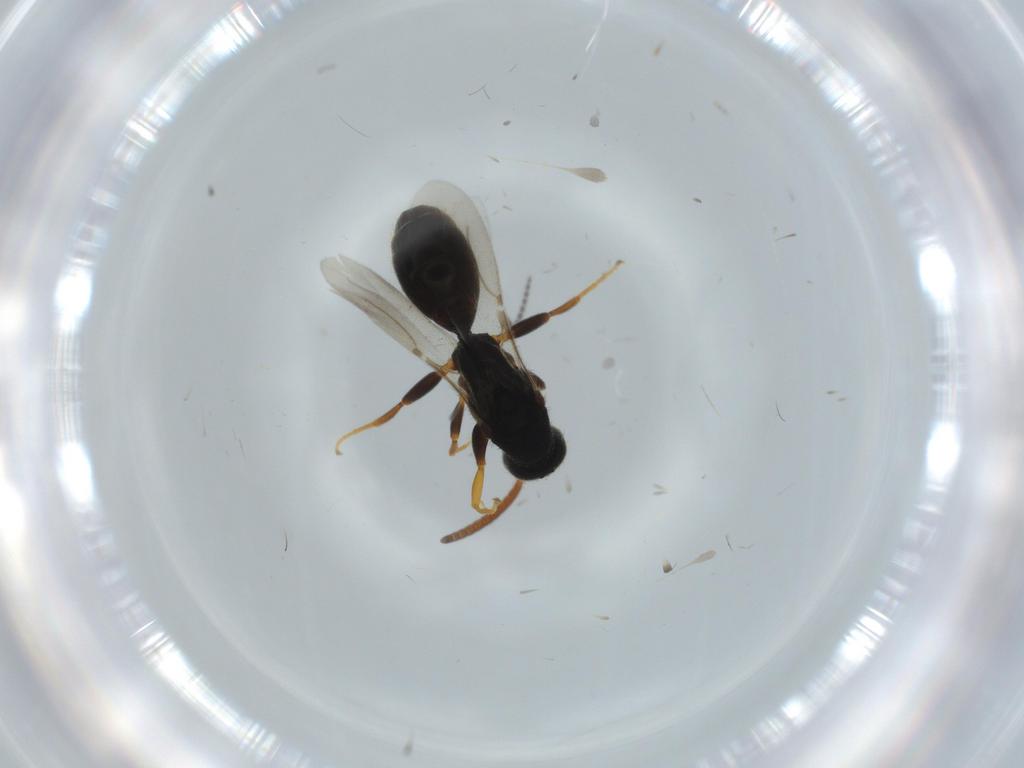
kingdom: Animalia
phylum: Arthropoda
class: Insecta
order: Hymenoptera
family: Bethylidae
